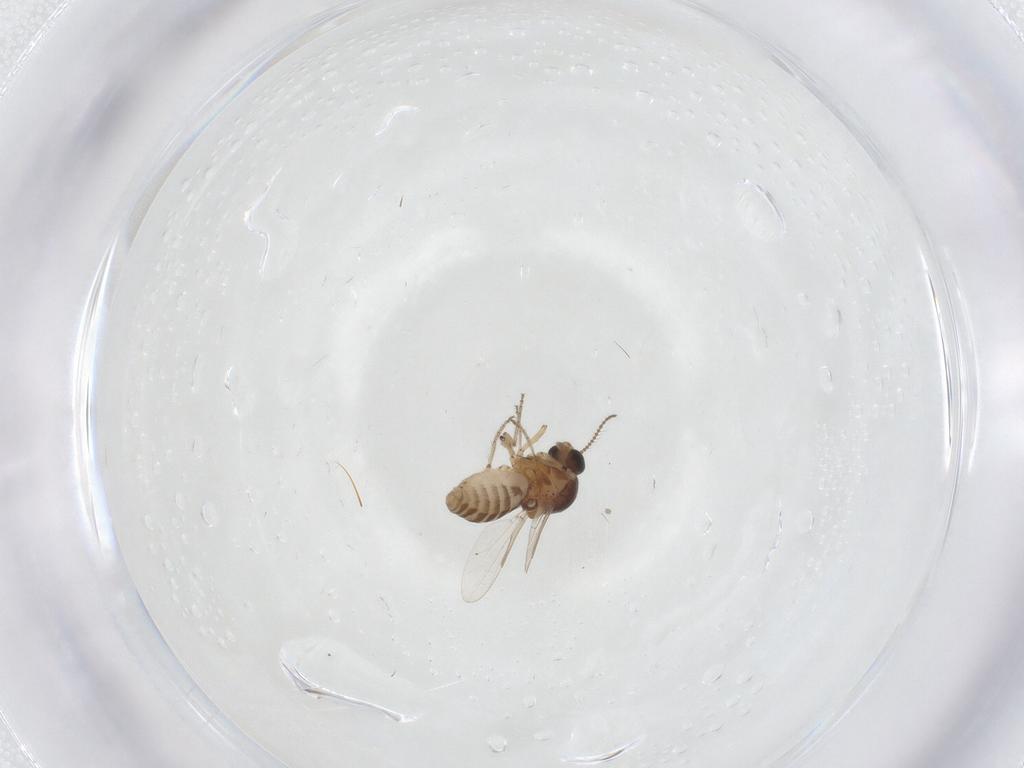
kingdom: Animalia
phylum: Arthropoda
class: Insecta
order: Diptera
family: Ceratopogonidae
